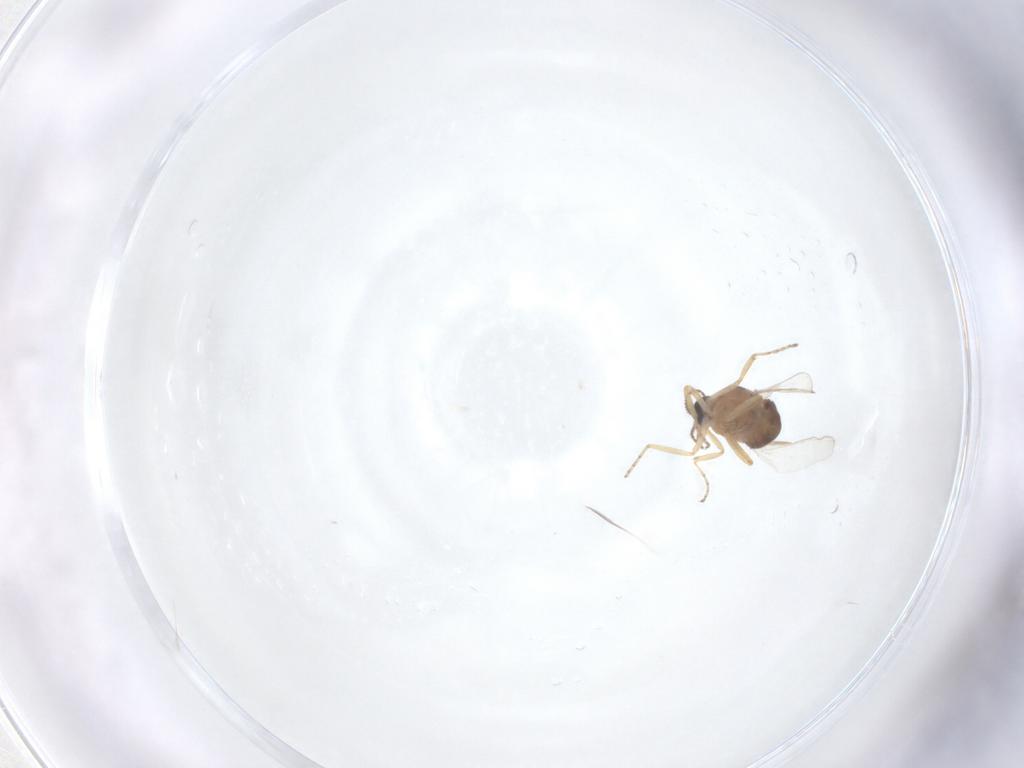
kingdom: Animalia
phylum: Arthropoda
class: Insecta
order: Diptera
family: Ceratopogonidae
